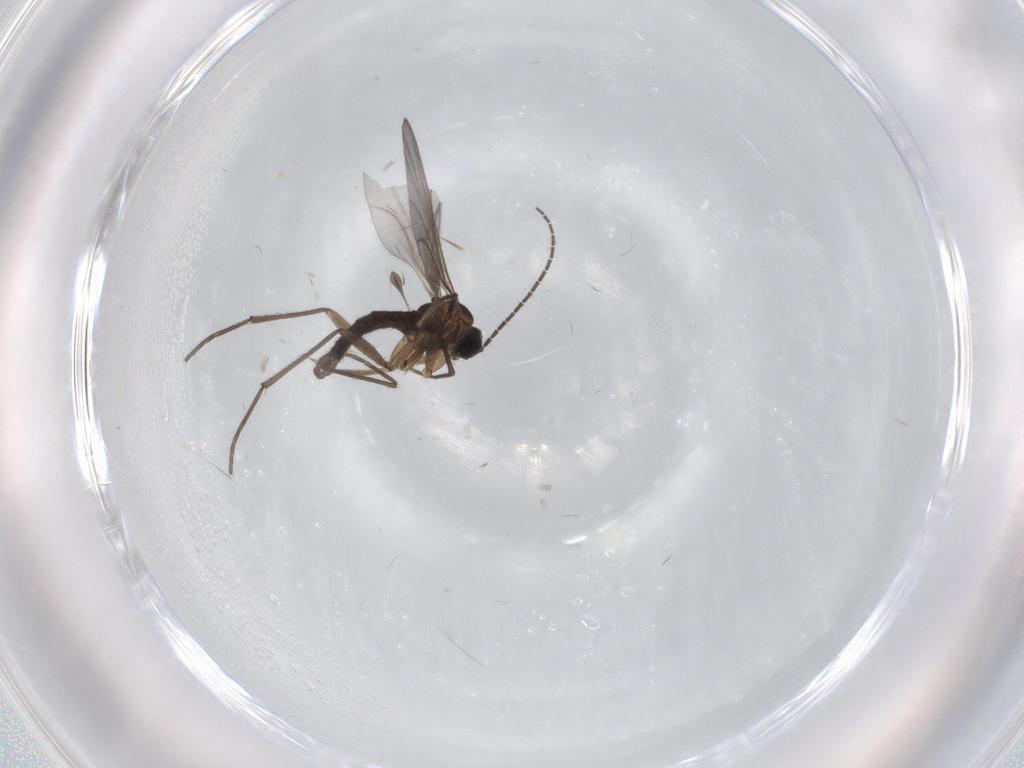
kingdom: Animalia
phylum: Arthropoda
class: Insecta
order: Diptera
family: Sciaridae
